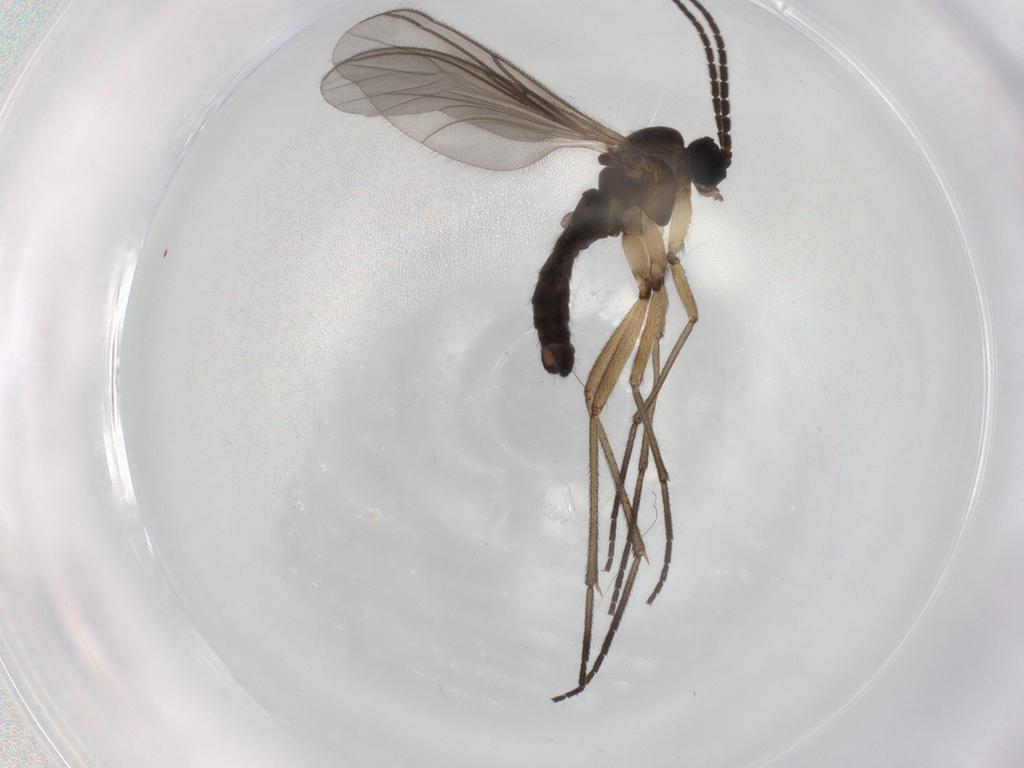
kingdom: Animalia
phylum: Arthropoda
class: Insecta
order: Diptera
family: Sciaridae
